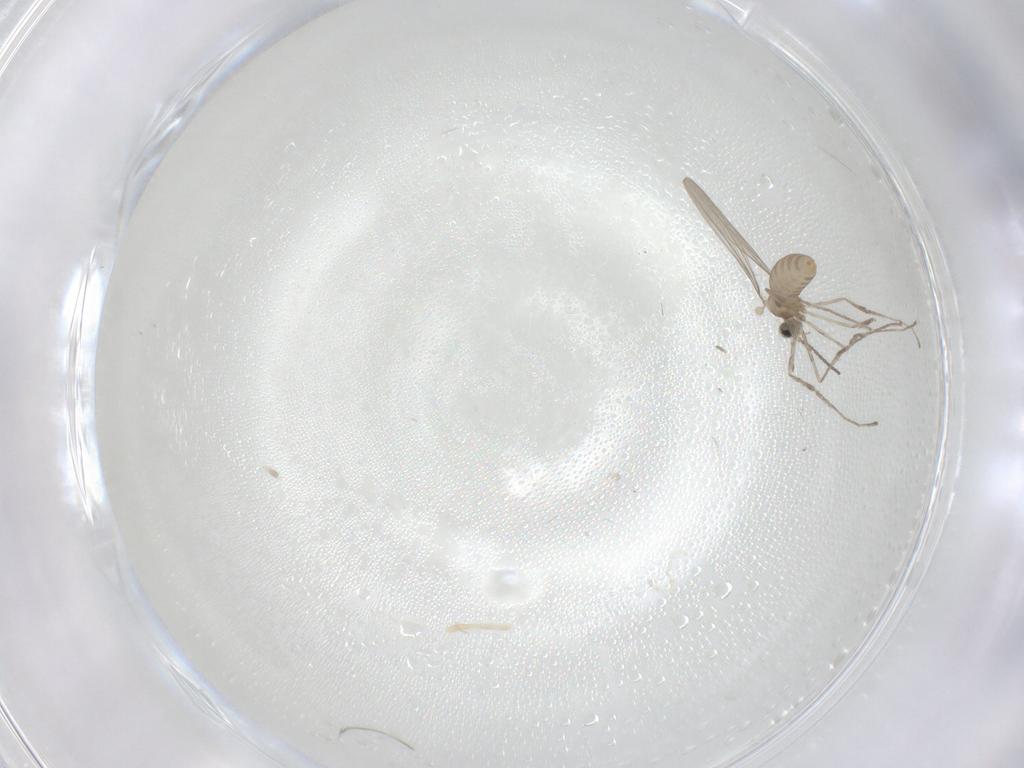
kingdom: Animalia
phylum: Arthropoda
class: Insecta
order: Diptera
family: Cecidomyiidae
